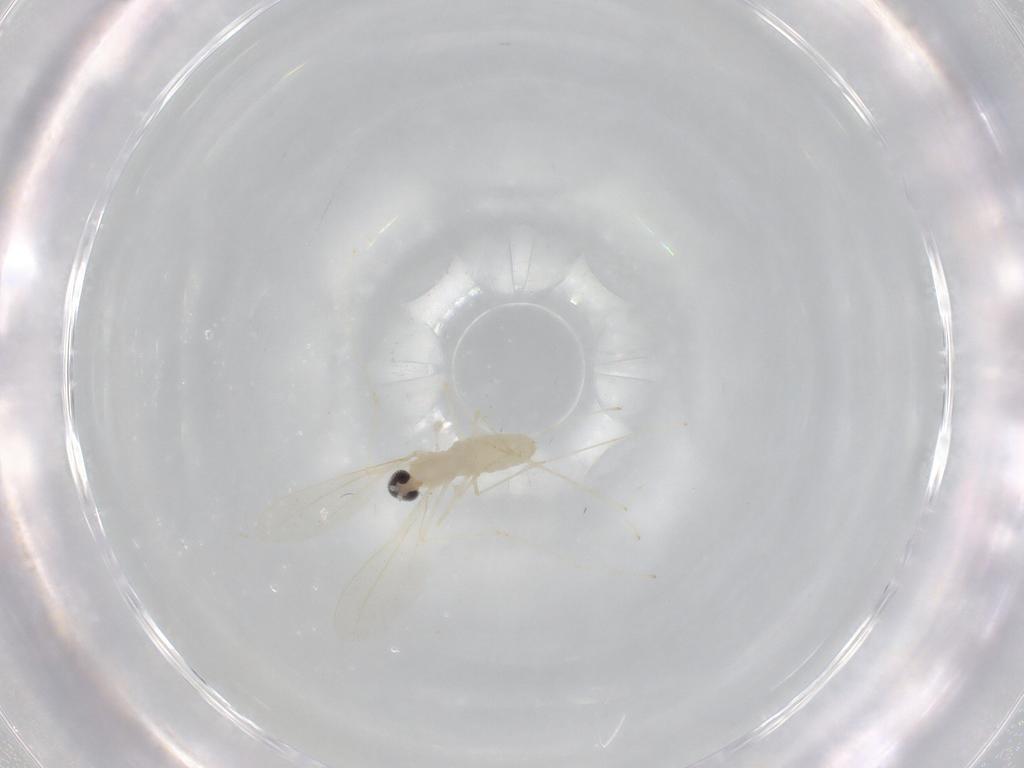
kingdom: Animalia
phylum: Arthropoda
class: Insecta
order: Diptera
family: Cecidomyiidae
